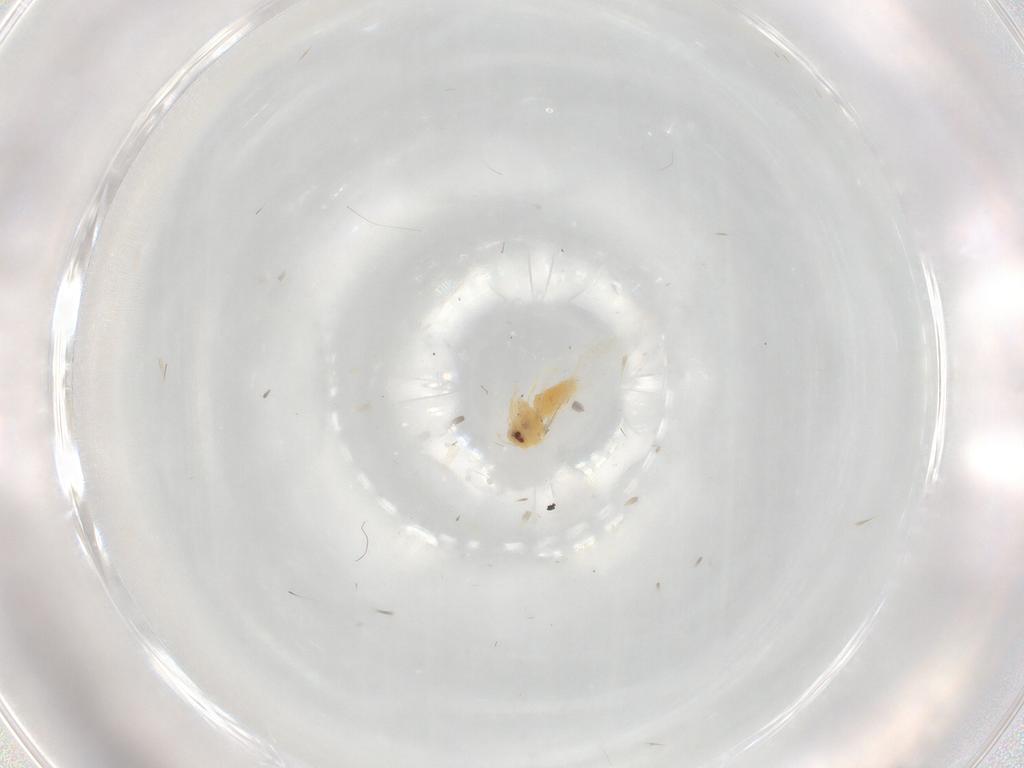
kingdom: Animalia
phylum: Arthropoda
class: Insecta
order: Hemiptera
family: Aleyrodidae
